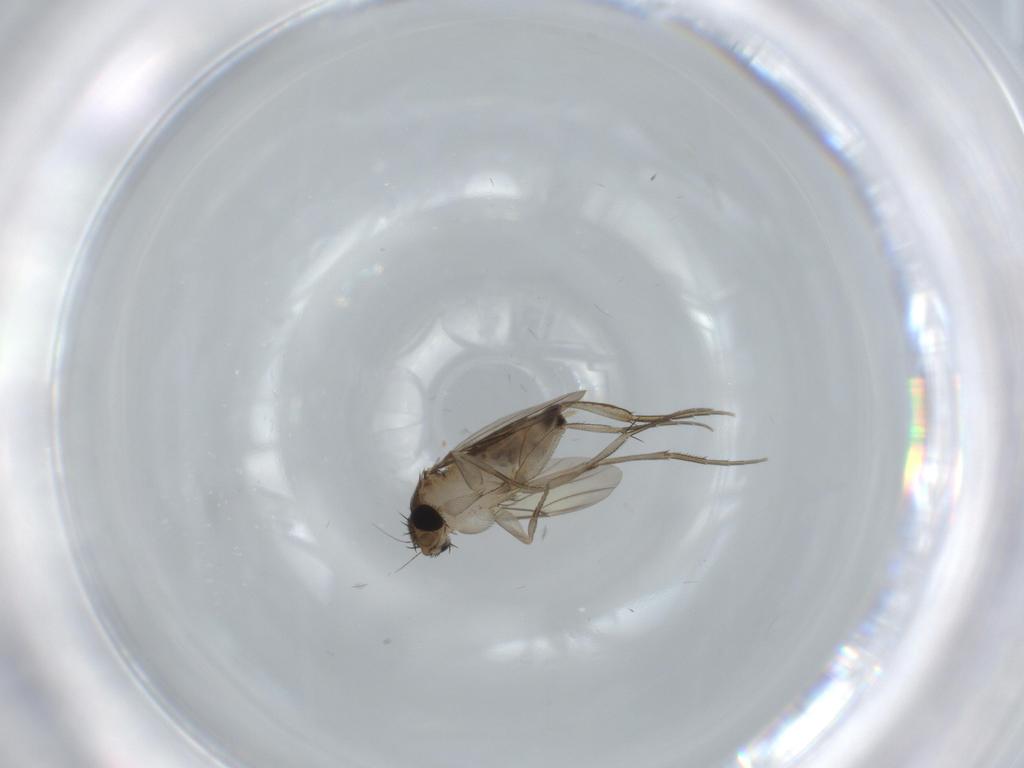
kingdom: Animalia
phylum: Arthropoda
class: Insecta
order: Diptera
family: Phoridae
